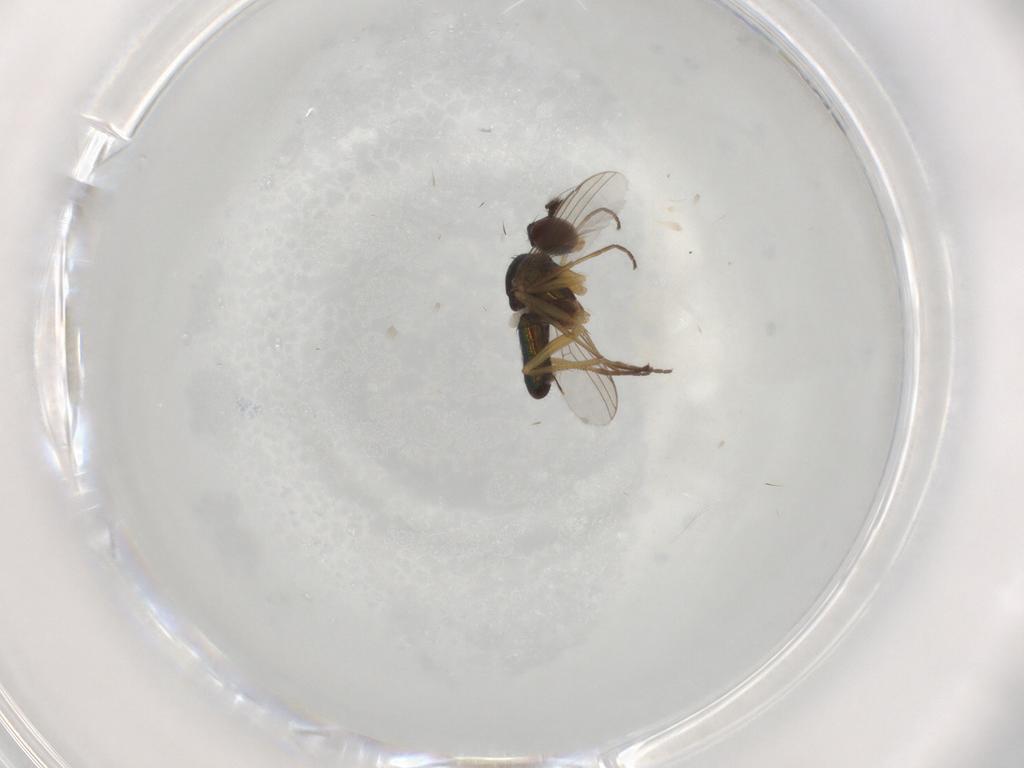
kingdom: Animalia
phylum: Arthropoda
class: Insecta
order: Diptera
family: Dolichopodidae
